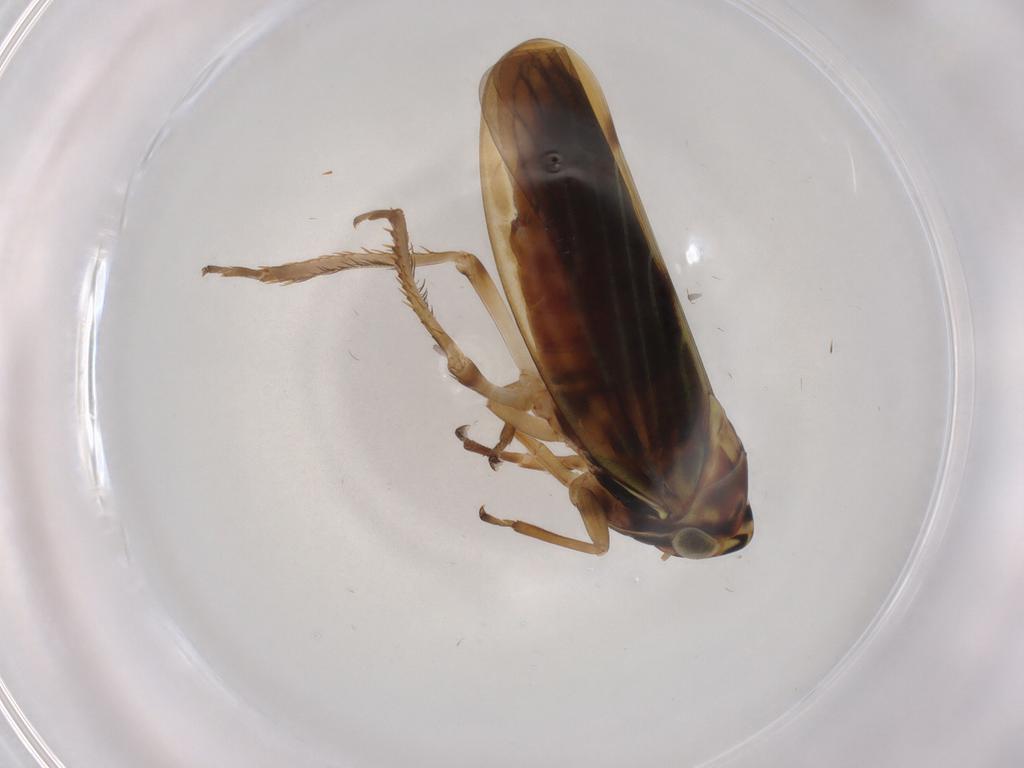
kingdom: Animalia
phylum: Arthropoda
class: Insecta
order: Hemiptera
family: Cicadellidae
